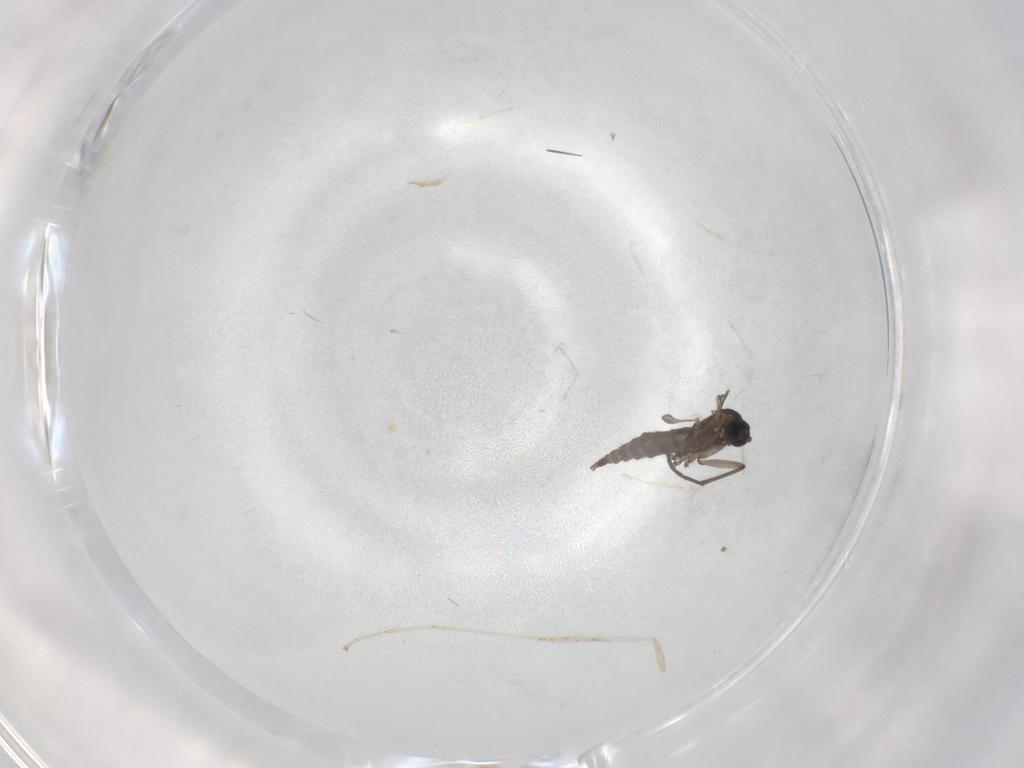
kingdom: Animalia
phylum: Arthropoda
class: Insecta
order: Diptera
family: Cecidomyiidae
